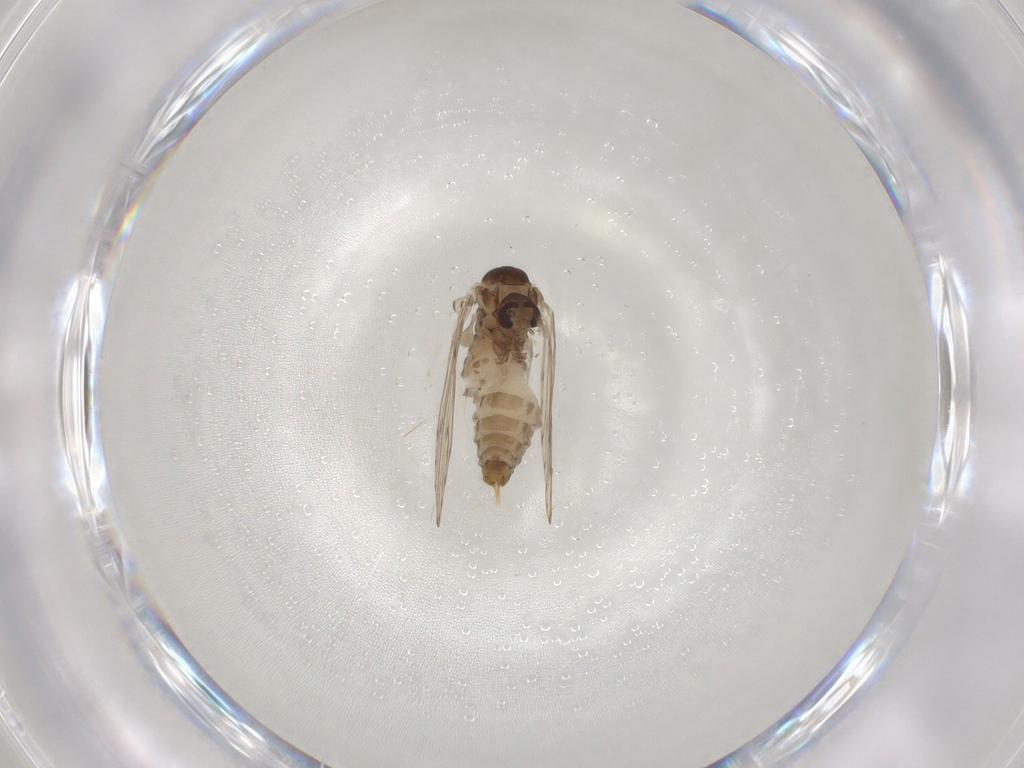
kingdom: Animalia
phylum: Arthropoda
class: Insecta
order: Diptera
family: Psychodidae
